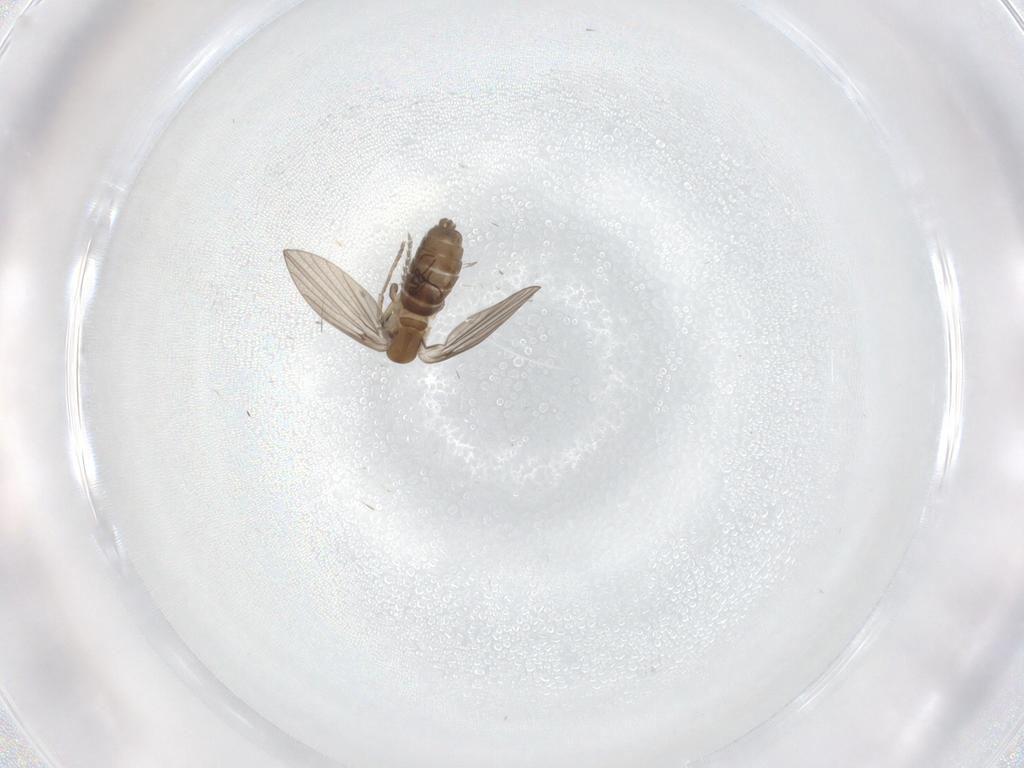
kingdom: Animalia
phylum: Arthropoda
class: Insecta
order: Diptera
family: Psychodidae
